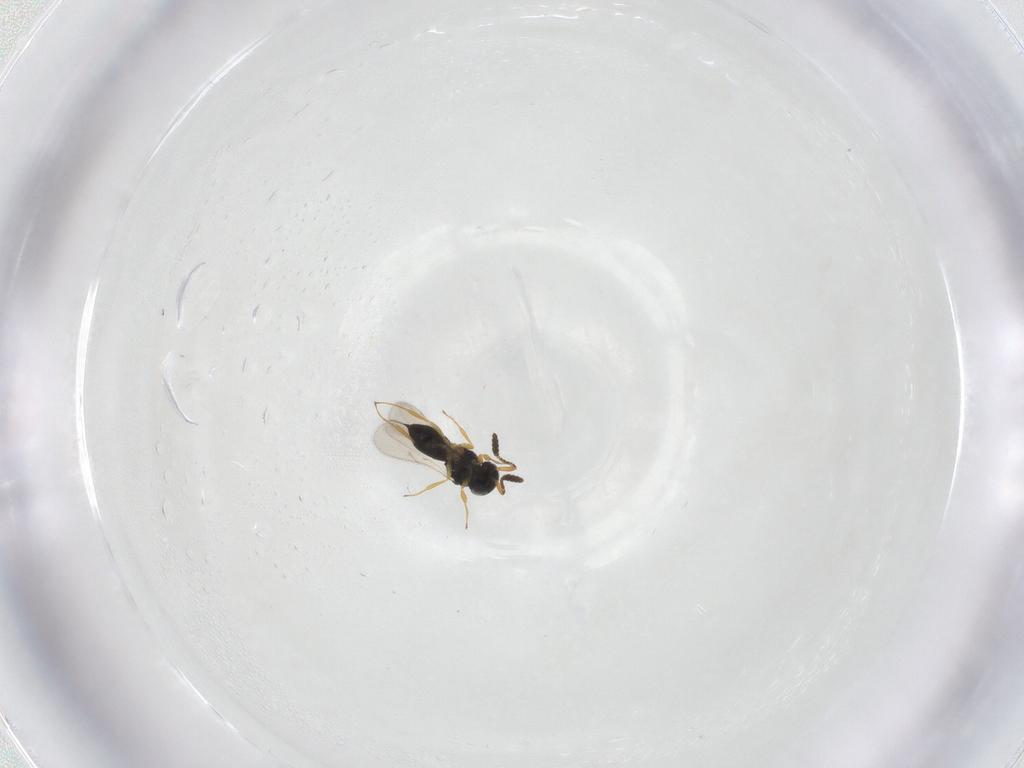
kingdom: Animalia
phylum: Arthropoda
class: Insecta
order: Hymenoptera
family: Scelionidae
